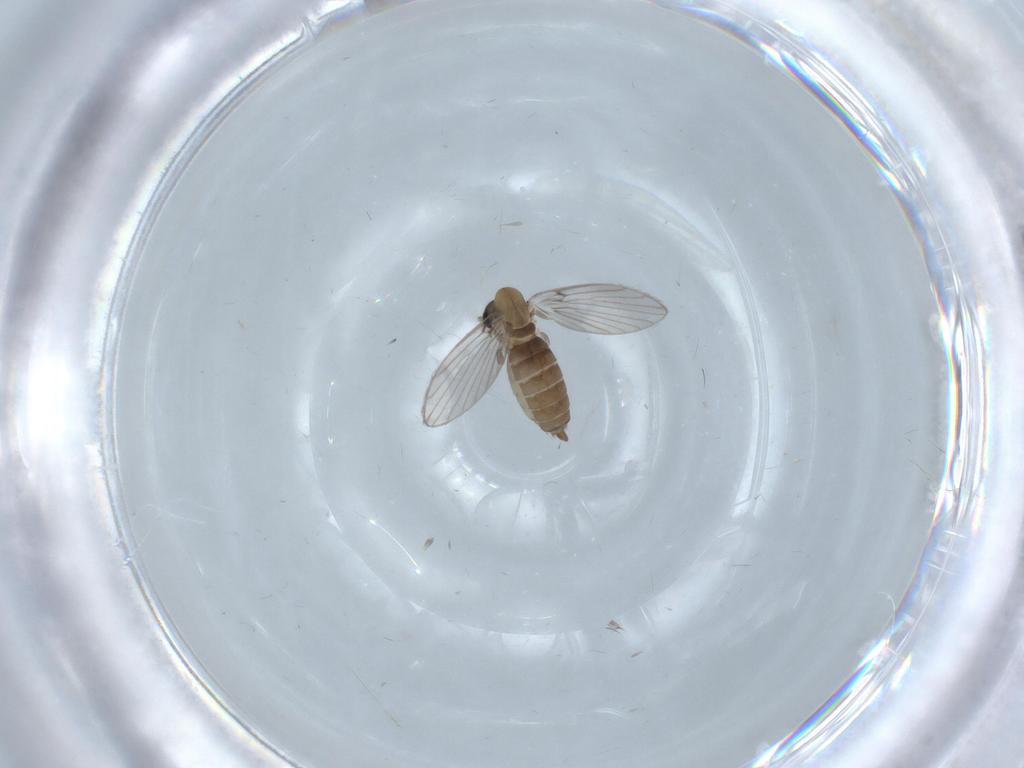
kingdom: Animalia
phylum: Arthropoda
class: Insecta
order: Diptera
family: Psychodidae
